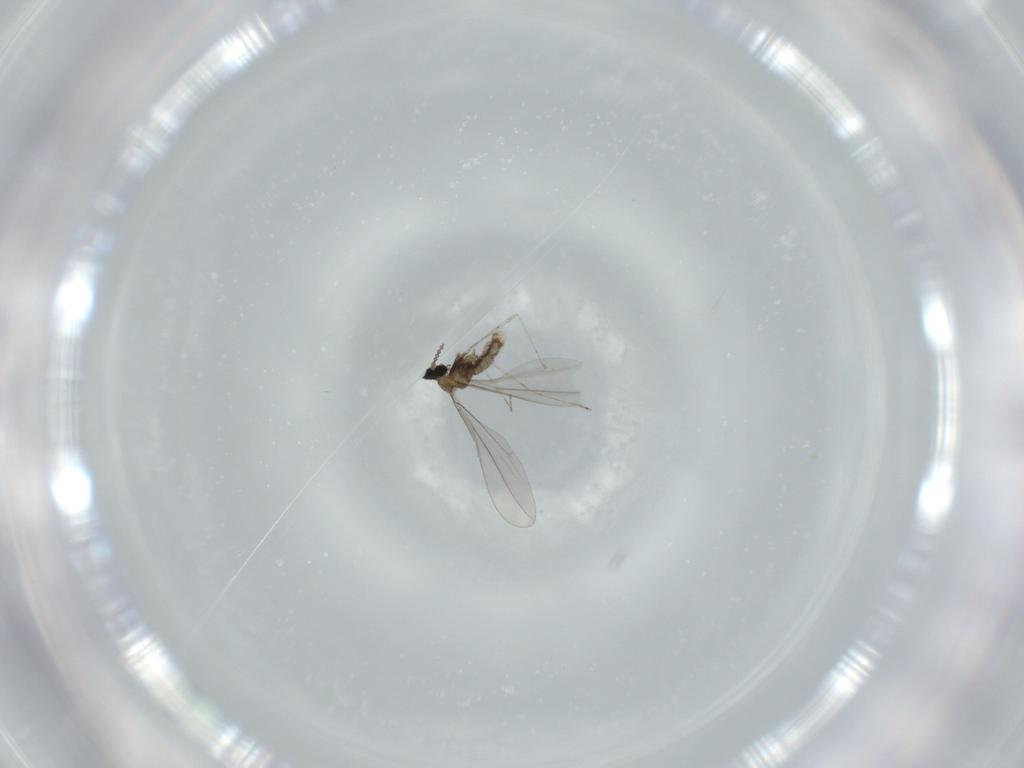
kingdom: Animalia
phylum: Arthropoda
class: Insecta
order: Diptera
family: Cecidomyiidae
